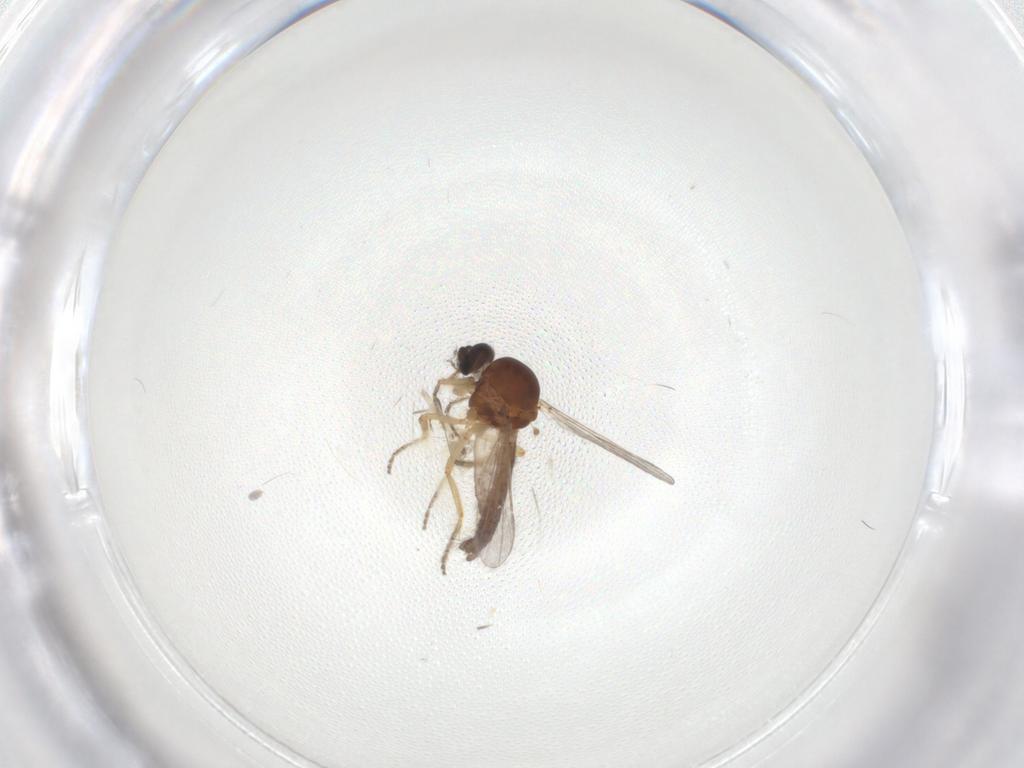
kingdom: Animalia
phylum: Arthropoda
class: Insecta
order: Diptera
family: Ceratopogonidae
